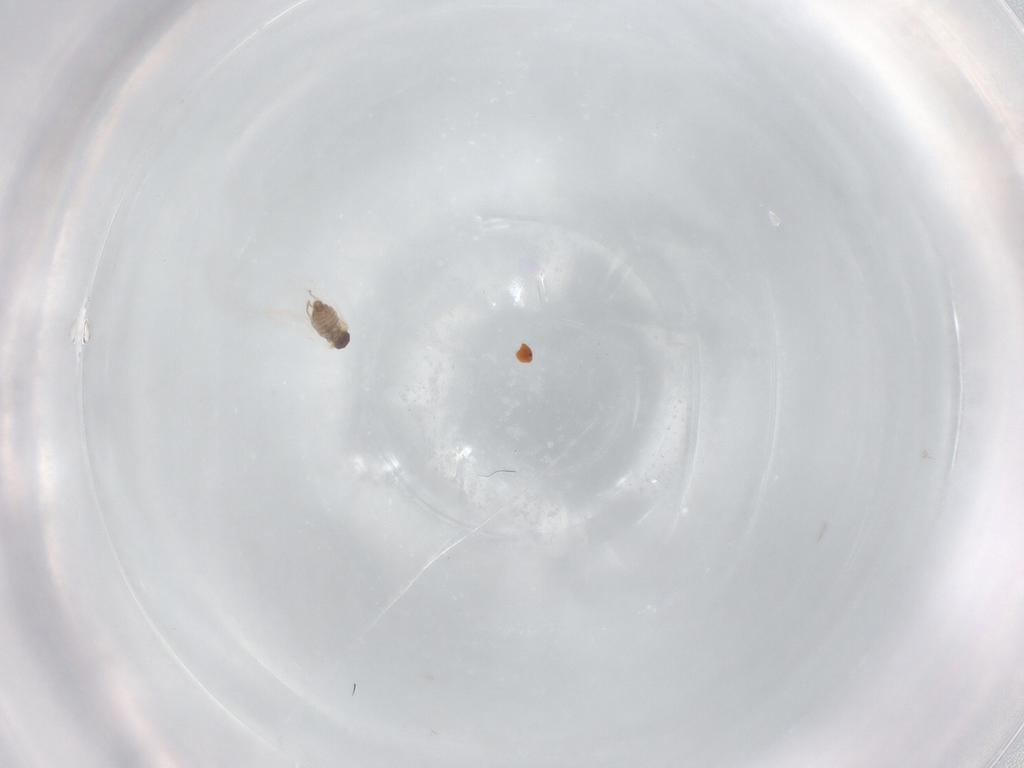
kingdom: Animalia
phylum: Arthropoda
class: Insecta
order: Diptera
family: Cecidomyiidae
